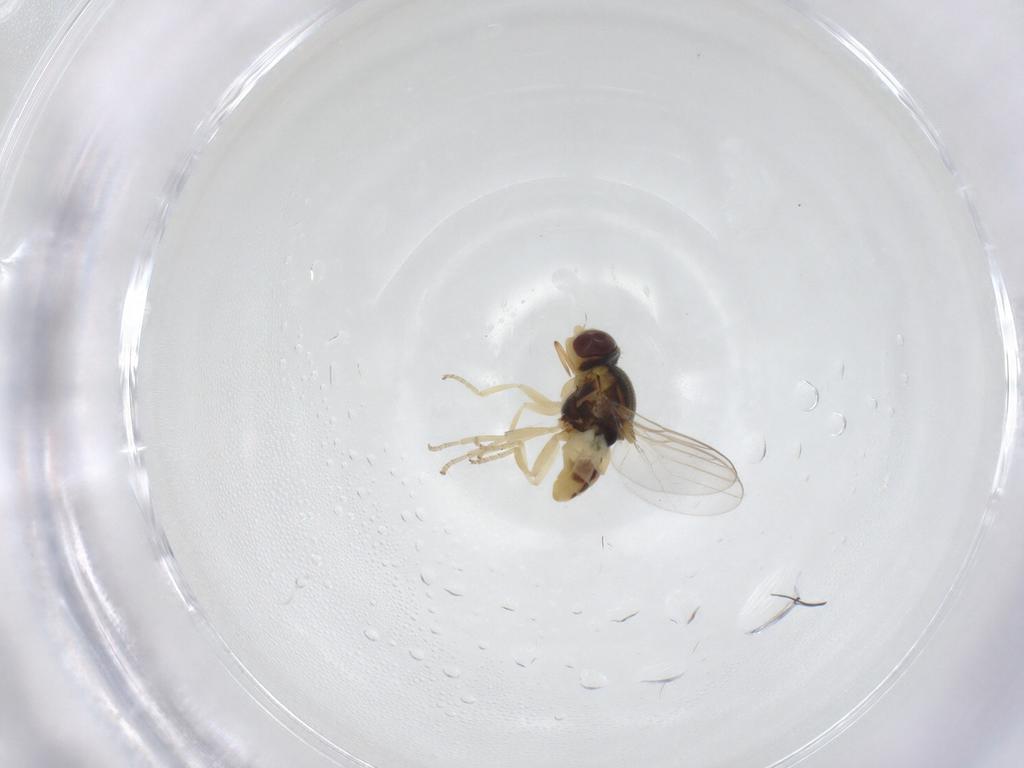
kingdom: Animalia
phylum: Arthropoda
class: Insecta
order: Diptera
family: Chloropidae
